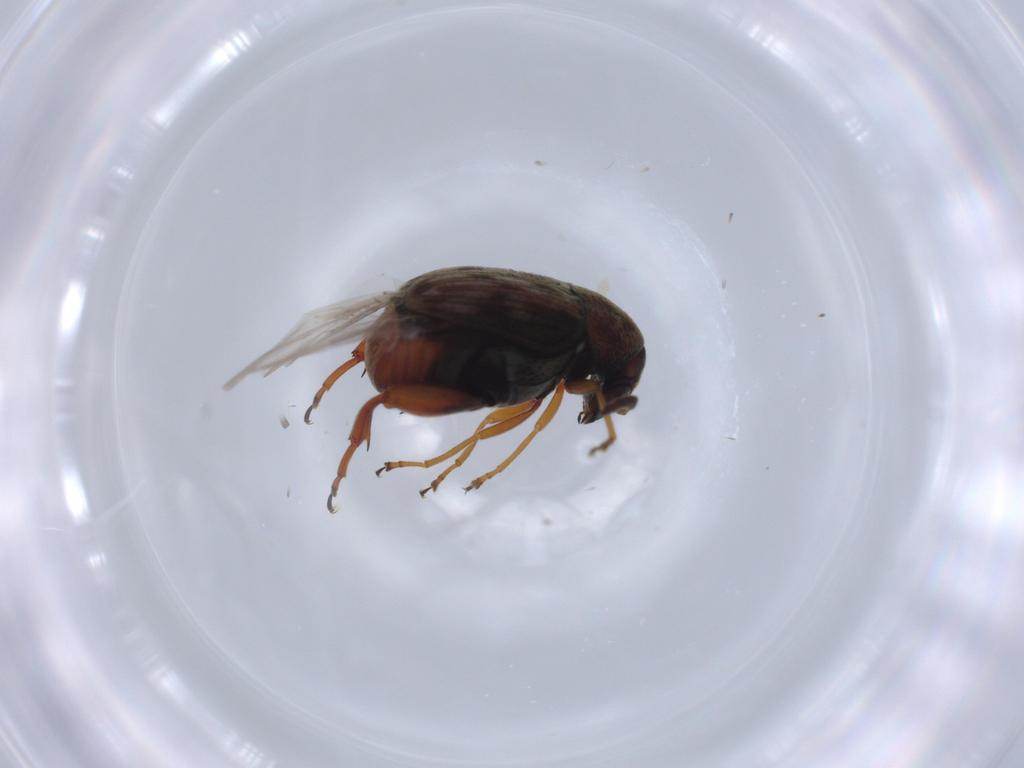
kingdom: Animalia
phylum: Arthropoda
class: Insecta
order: Coleoptera
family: Chrysomelidae
